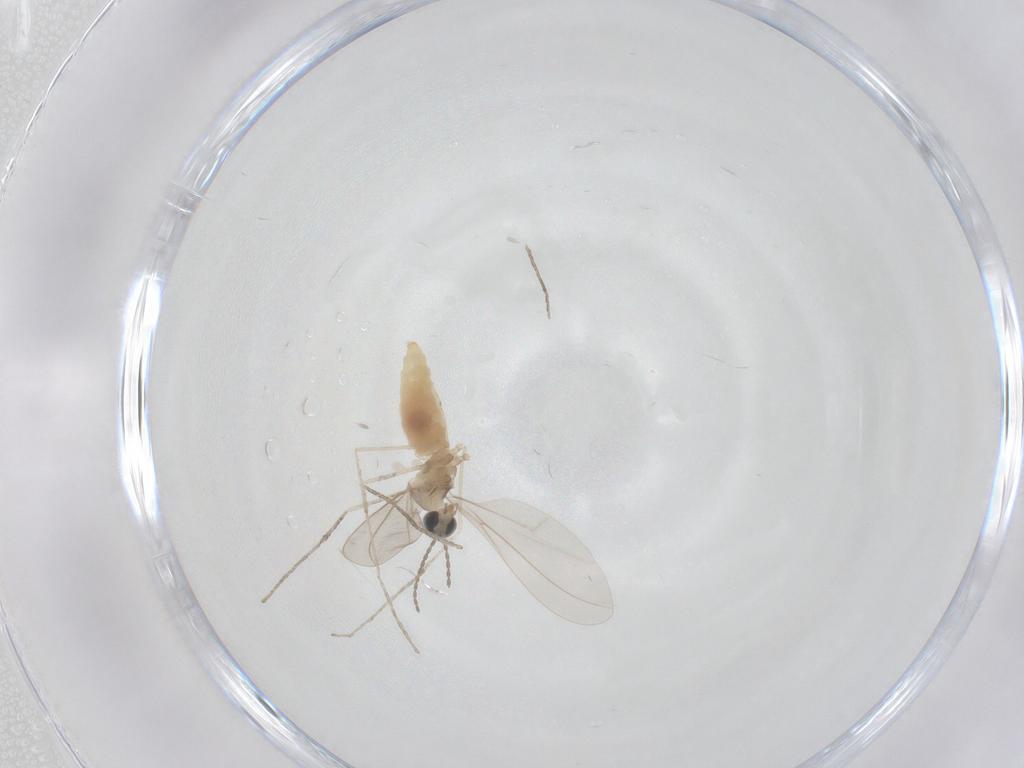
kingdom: Animalia
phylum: Arthropoda
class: Insecta
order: Diptera
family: Cecidomyiidae
